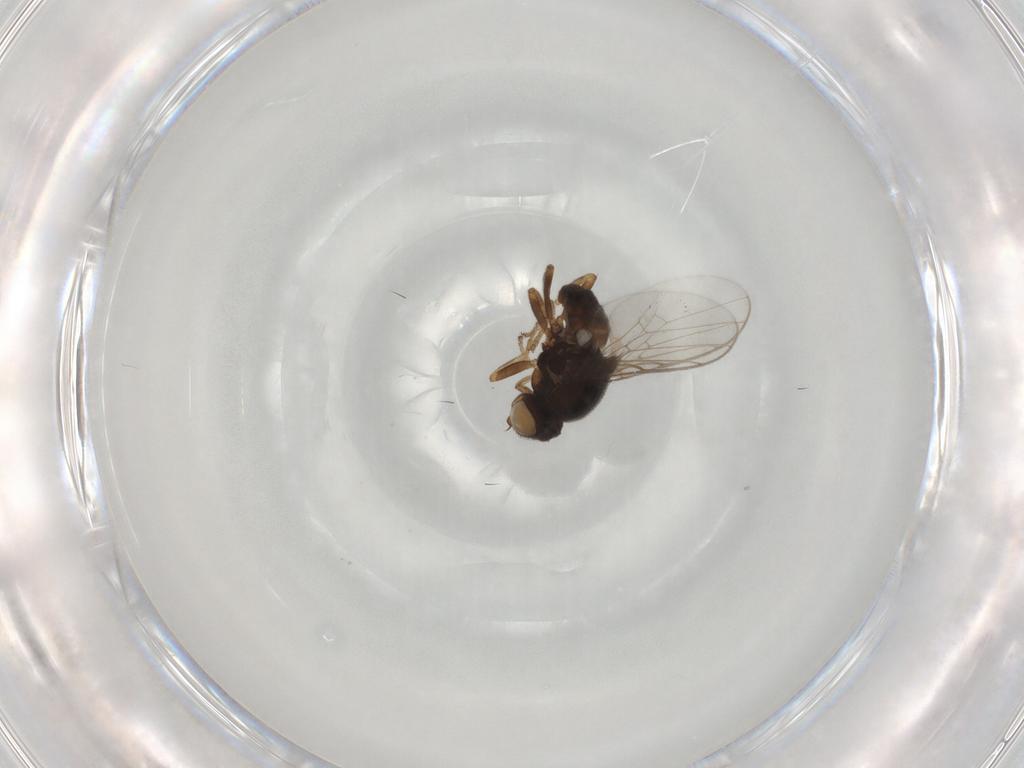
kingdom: Animalia
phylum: Arthropoda
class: Insecta
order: Diptera
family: Chloropidae
